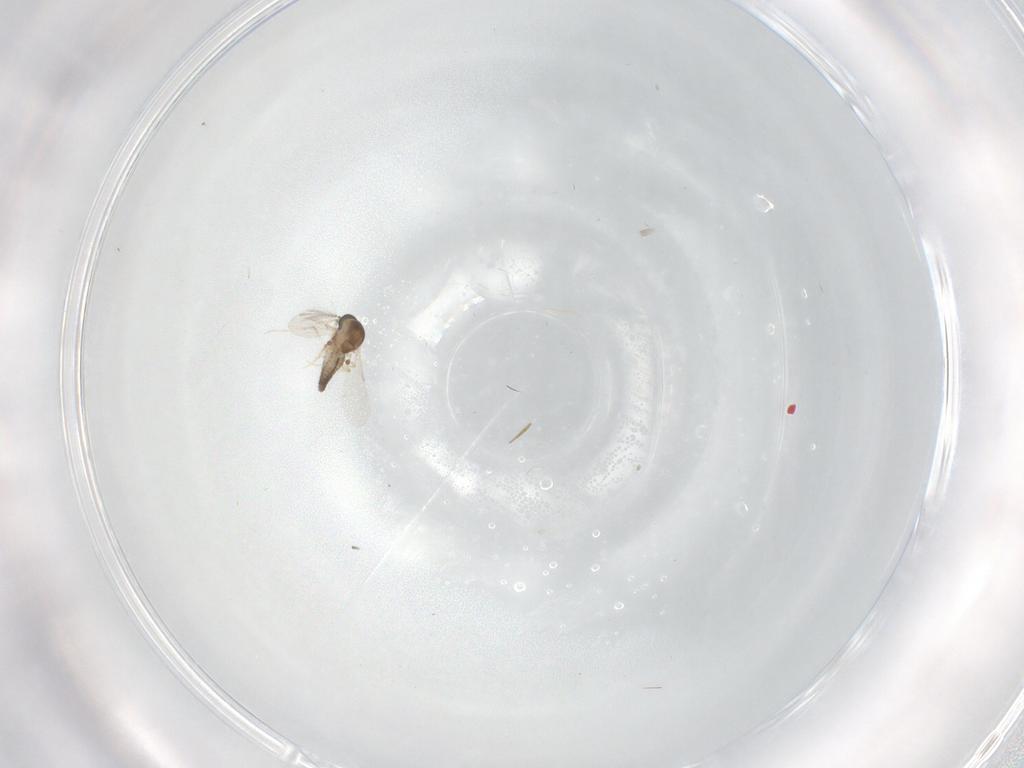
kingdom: Animalia
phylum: Arthropoda
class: Insecta
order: Diptera
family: Ceratopogonidae
